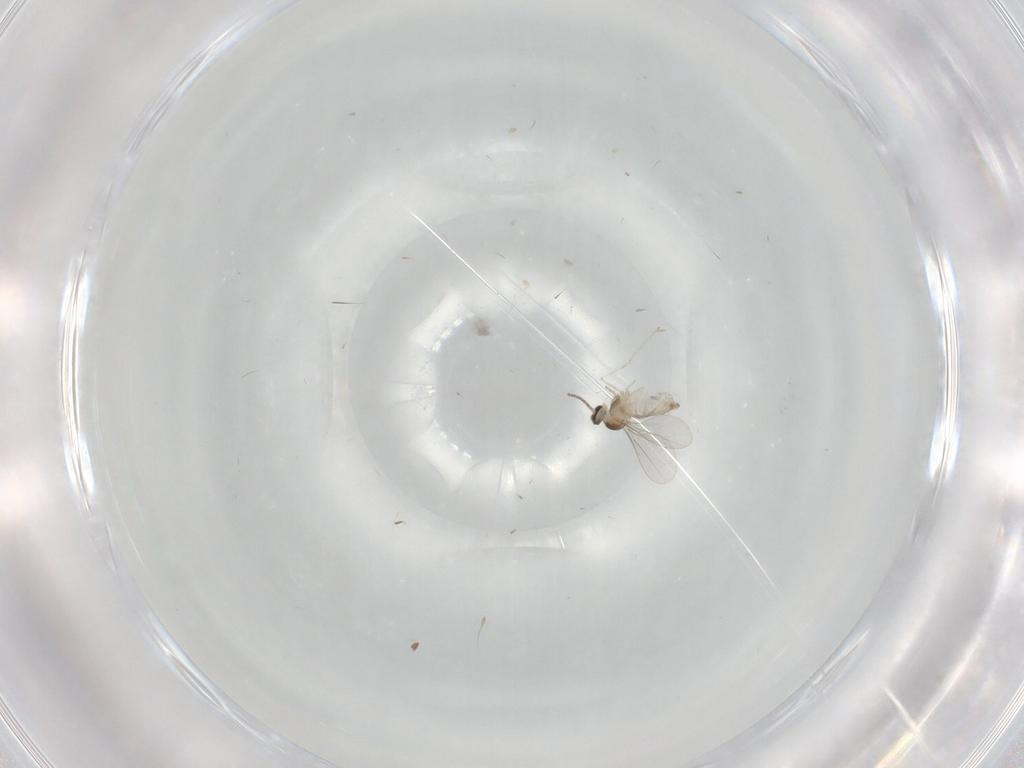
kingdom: Animalia
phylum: Arthropoda
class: Insecta
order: Diptera
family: Cecidomyiidae
